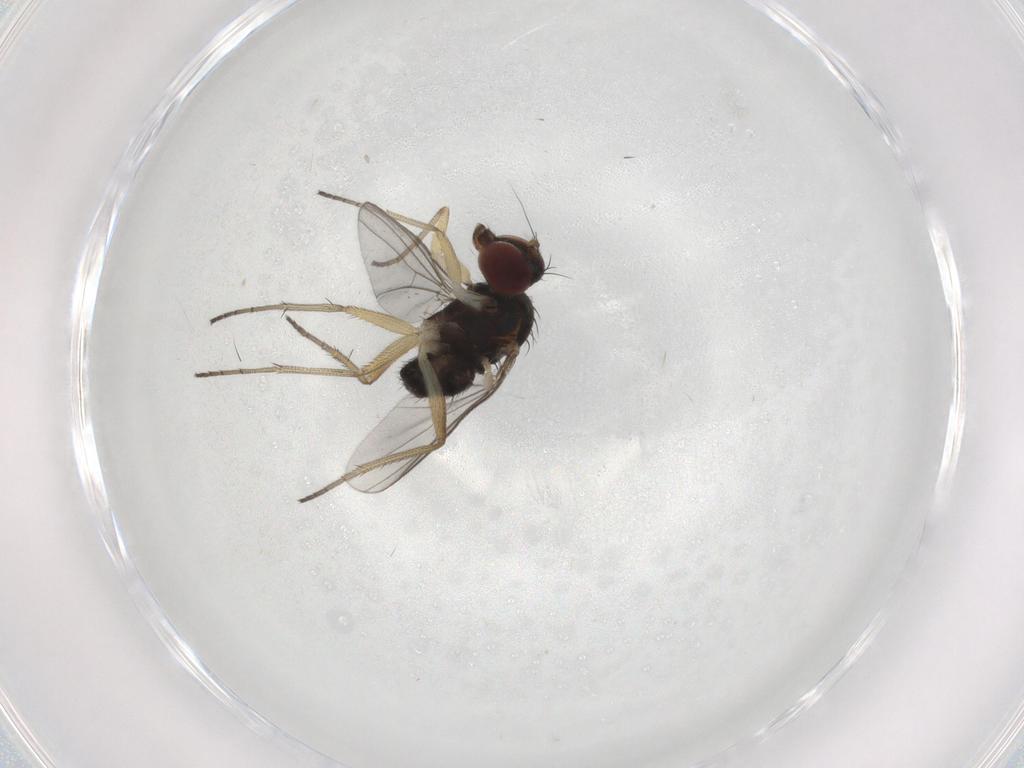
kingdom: Animalia
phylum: Arthropoda
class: Insecta
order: Diptera
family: Dolichopodidae
